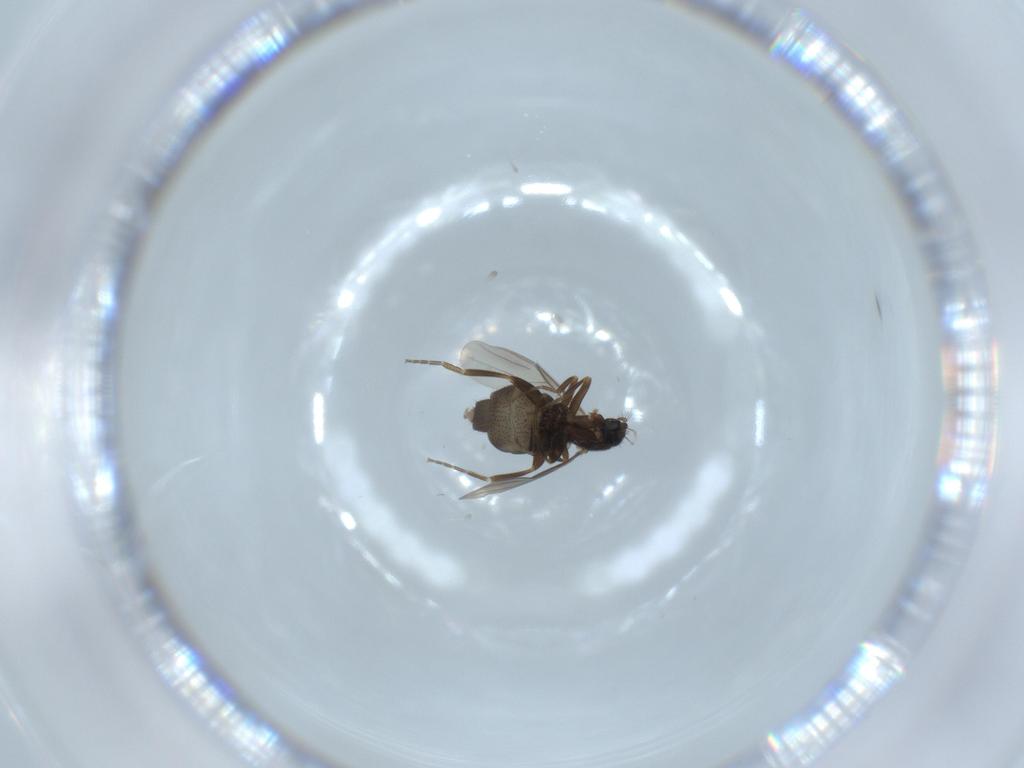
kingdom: Animalia
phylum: Arthropoda
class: Insecta
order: Diptera
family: Phoridae
